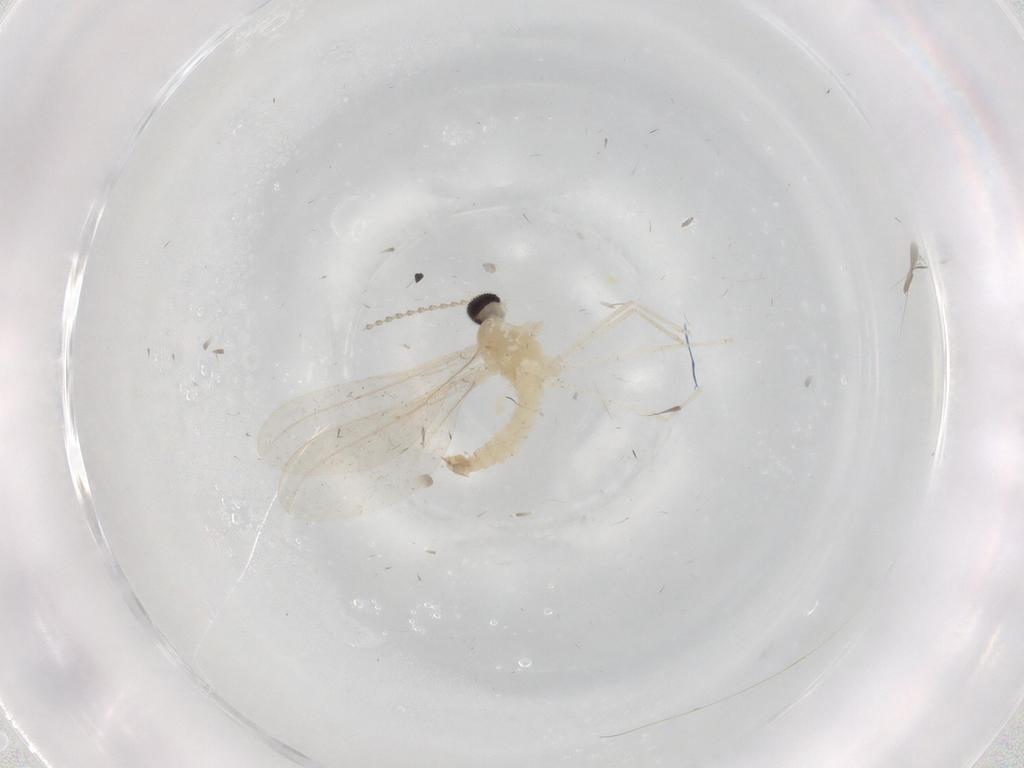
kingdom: Animalia
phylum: Arthropoda
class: Insecta
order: Diptera
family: Cecidomyiidae
